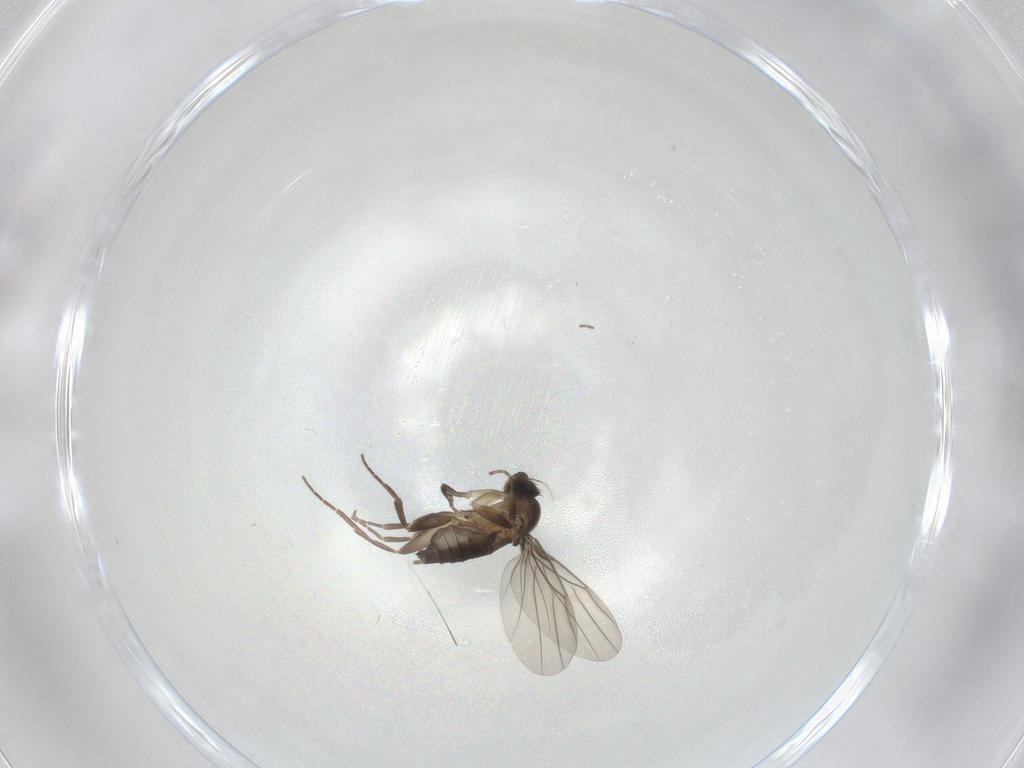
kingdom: Animalia
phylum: Arthropoda
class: Insecta
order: Diptera
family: Phoridae
